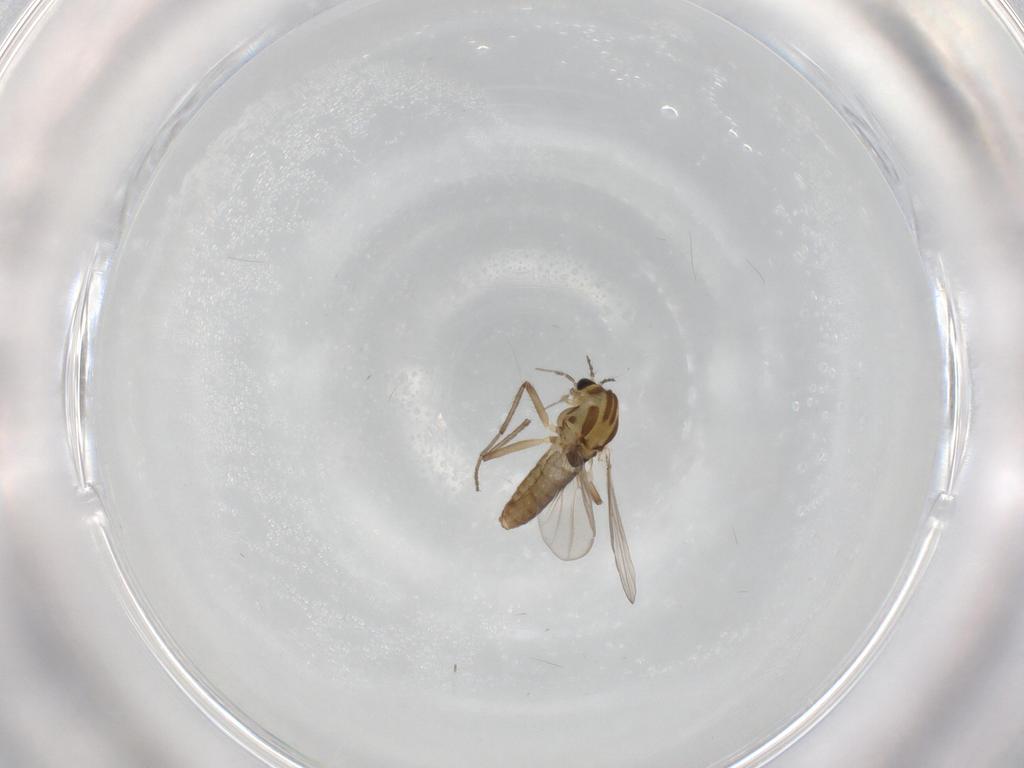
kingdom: Animalia
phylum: Arthropoda
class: Insecta
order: Diptera
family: Chironomidae
